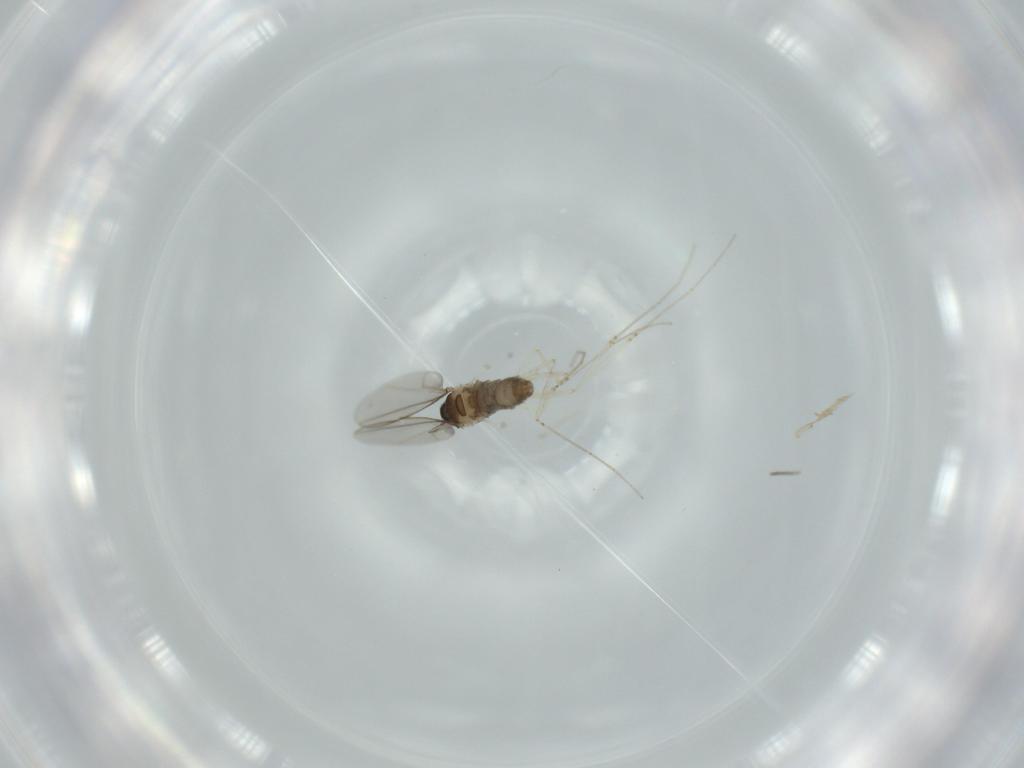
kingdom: Animalia
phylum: Arthropoda
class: Insecta
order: Diptera
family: Cecidomyiidae
